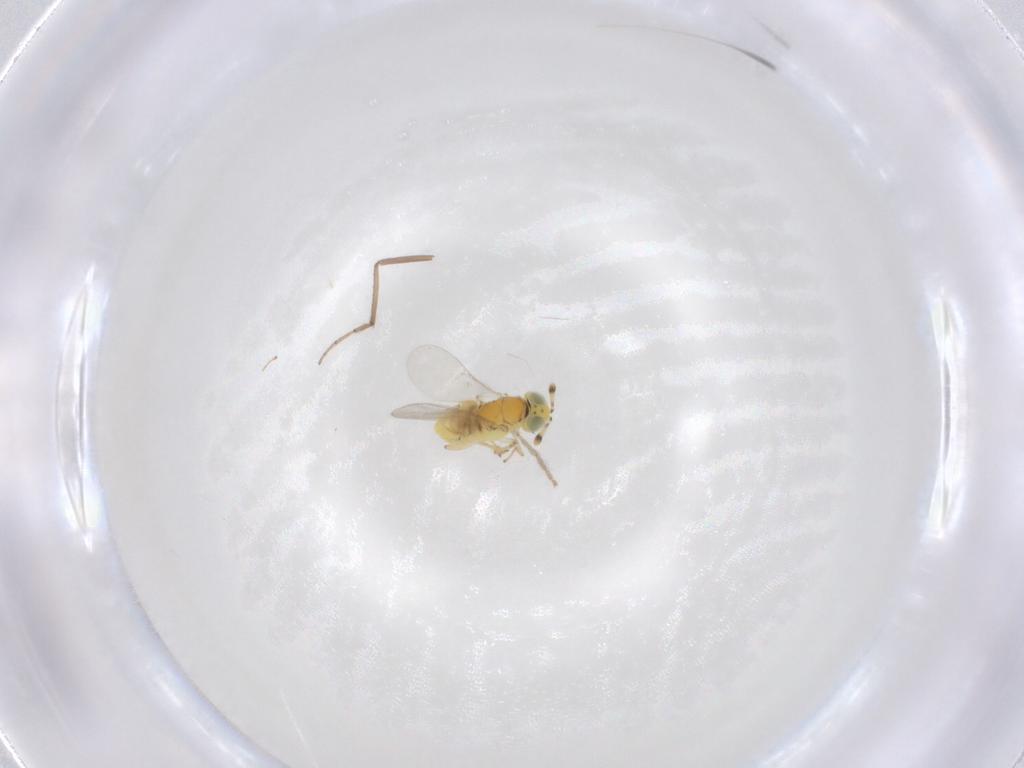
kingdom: Animalia
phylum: Arthropoda
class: Insecta
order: Hymenoptera
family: Encyrtidae
